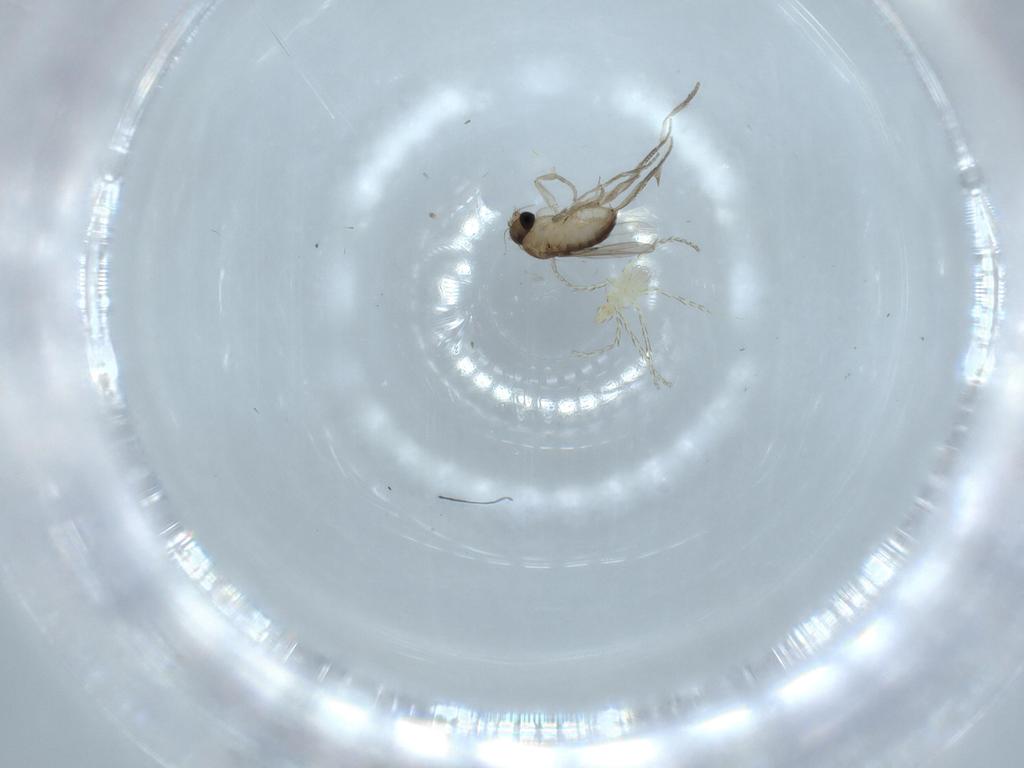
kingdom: Animalia
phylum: Arthropoda
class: Insecta
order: Diptera
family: Phoridae
